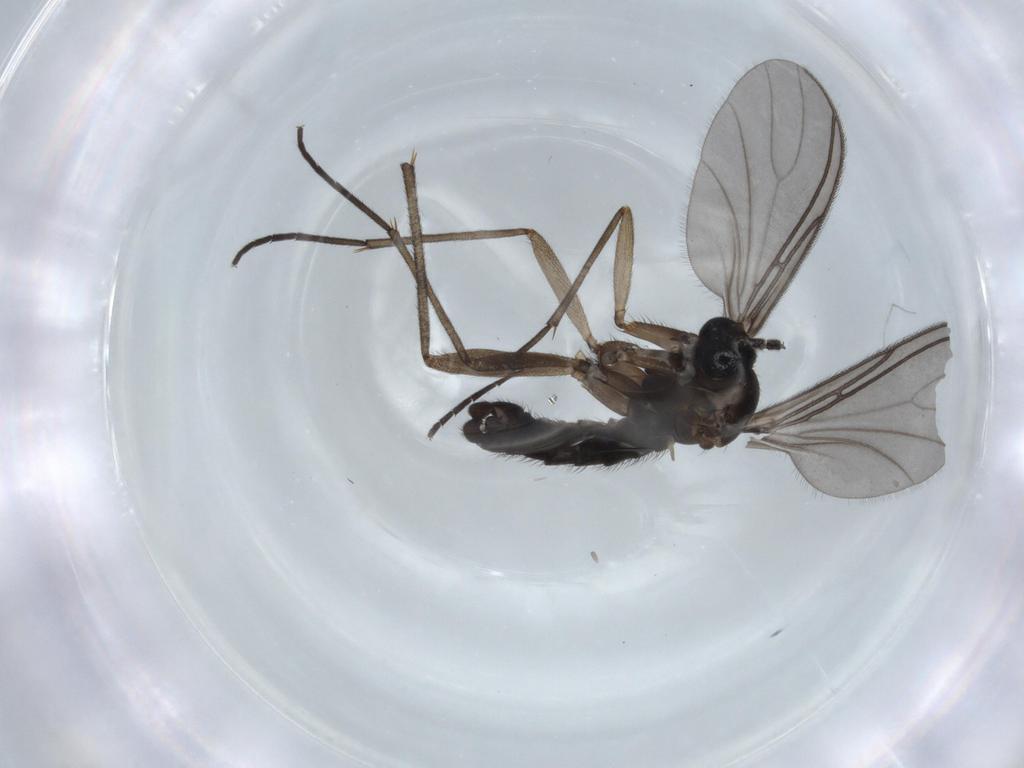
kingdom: Animalia
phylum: Arthropoda
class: Insecta
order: Diptera
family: Sciaridae
